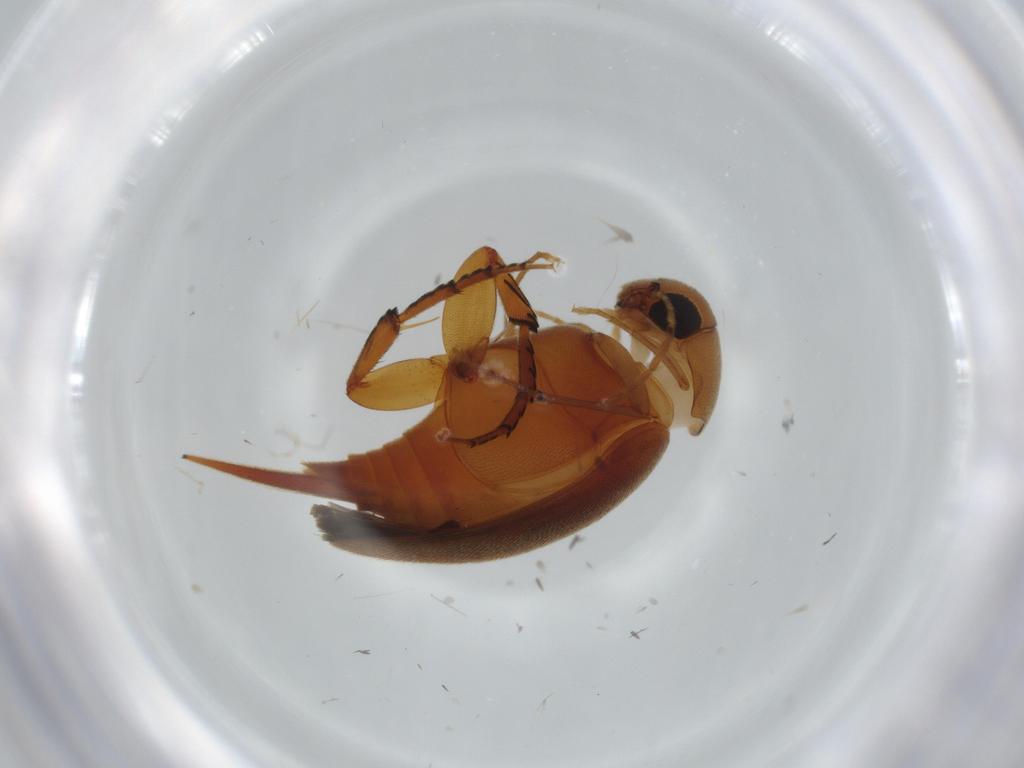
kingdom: Animalia
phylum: Arthropoda
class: Insecta
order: Coleoptera
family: Mordellidae
